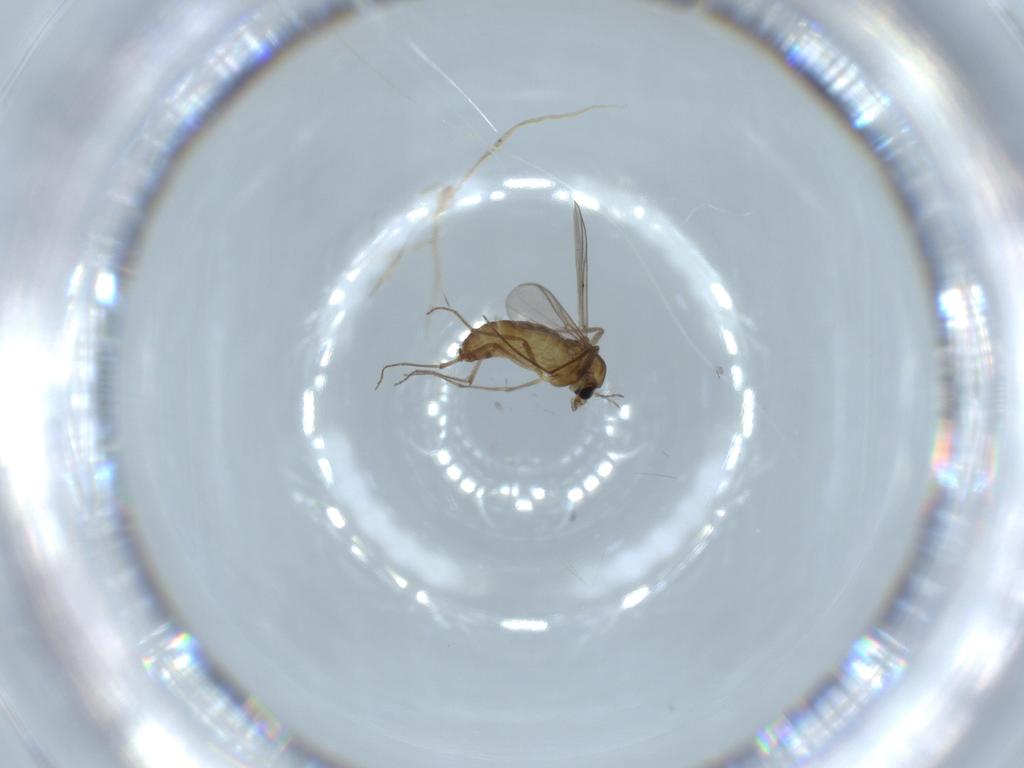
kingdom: Animalia
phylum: Arthropoda
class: Insecta
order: Diptera
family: Chironomidae
